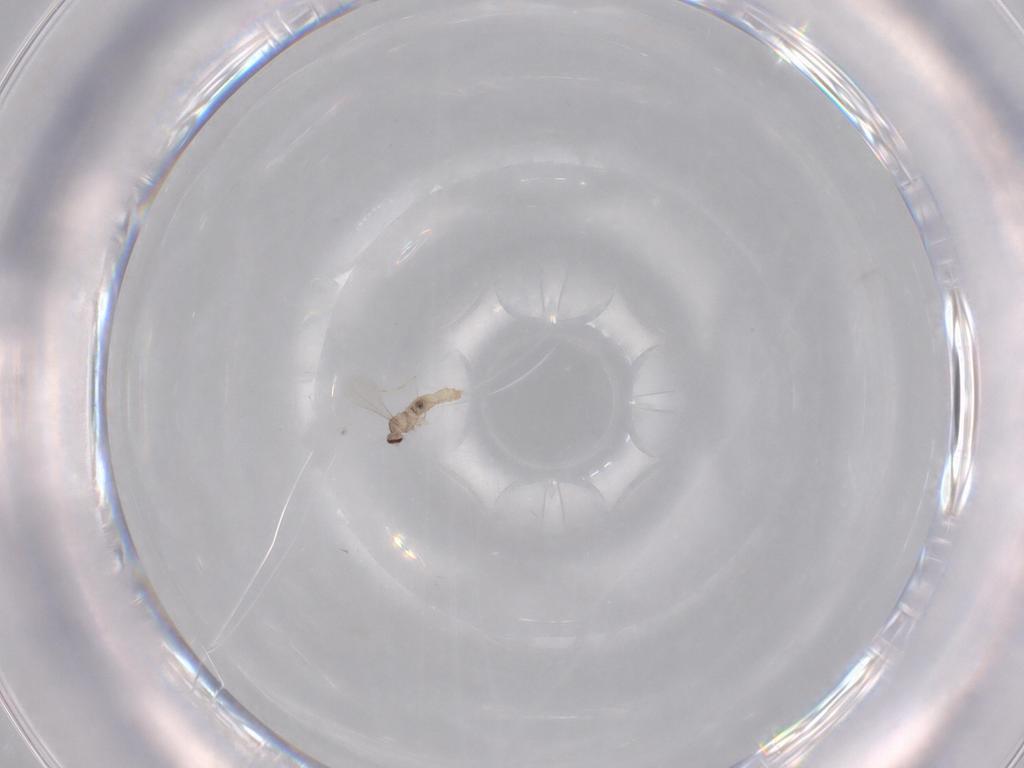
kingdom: Animalia
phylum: Arthropoda
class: Insecta
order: Diptera
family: Cecidomyiidae
